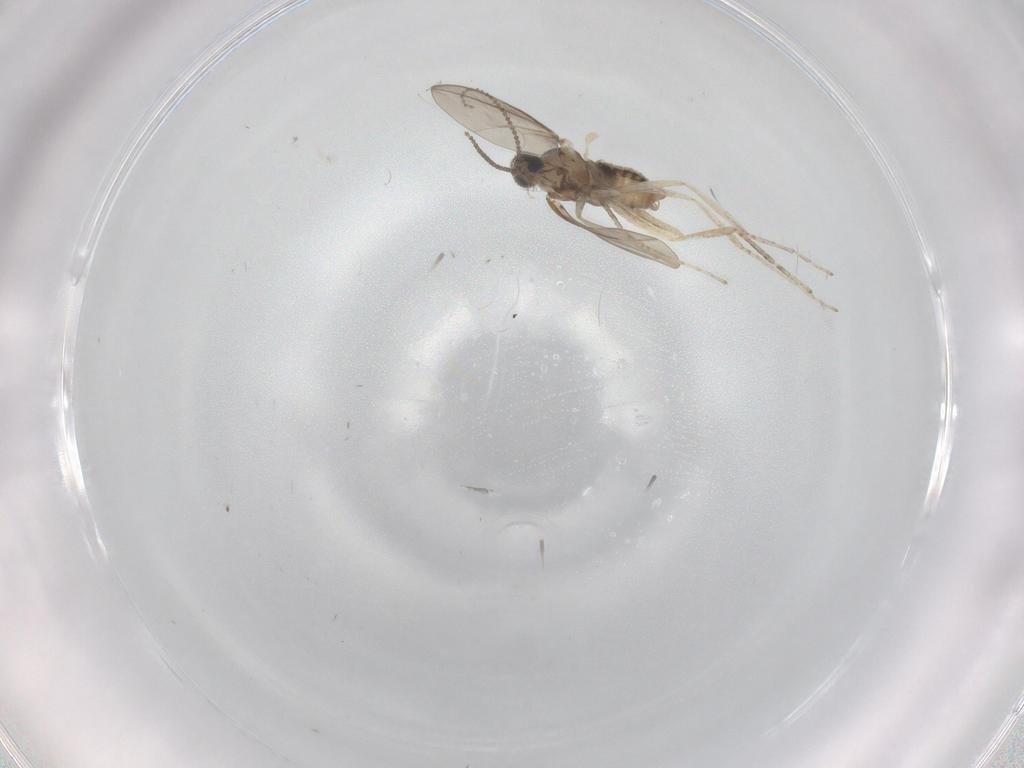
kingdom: Animalia
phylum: Arthropoda
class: Insecta
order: Diptera
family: Cecidomyiidae
